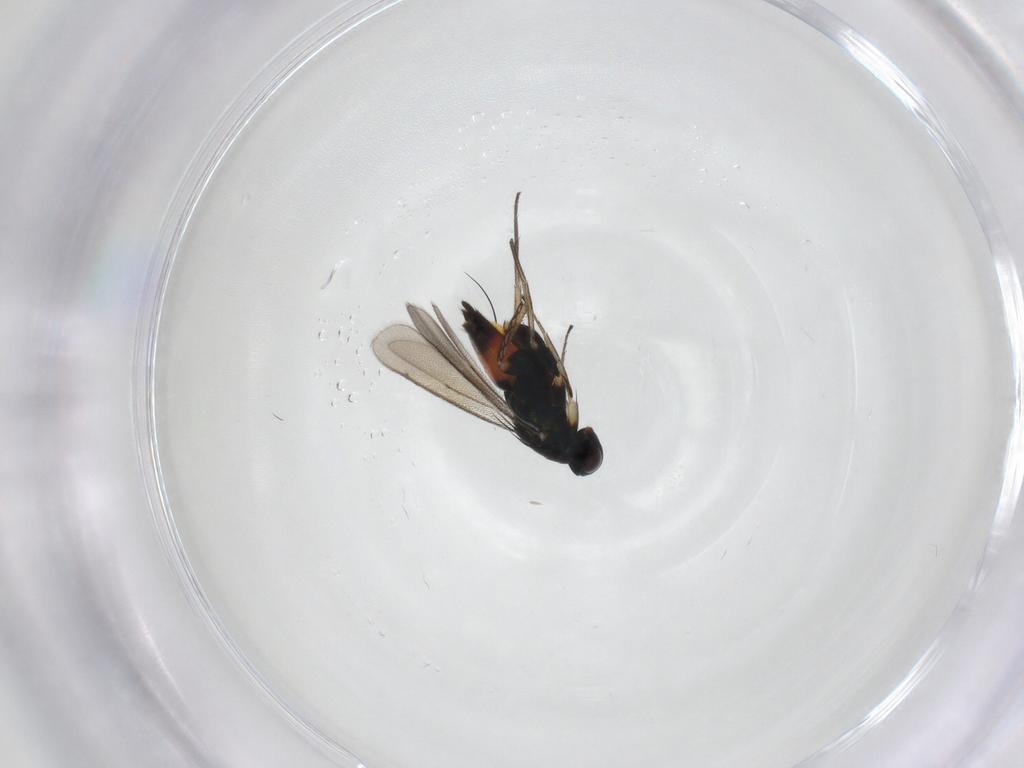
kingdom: Animalia
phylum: Arthropoda
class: Insecta
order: Hymenoptera
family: Eulophidae
